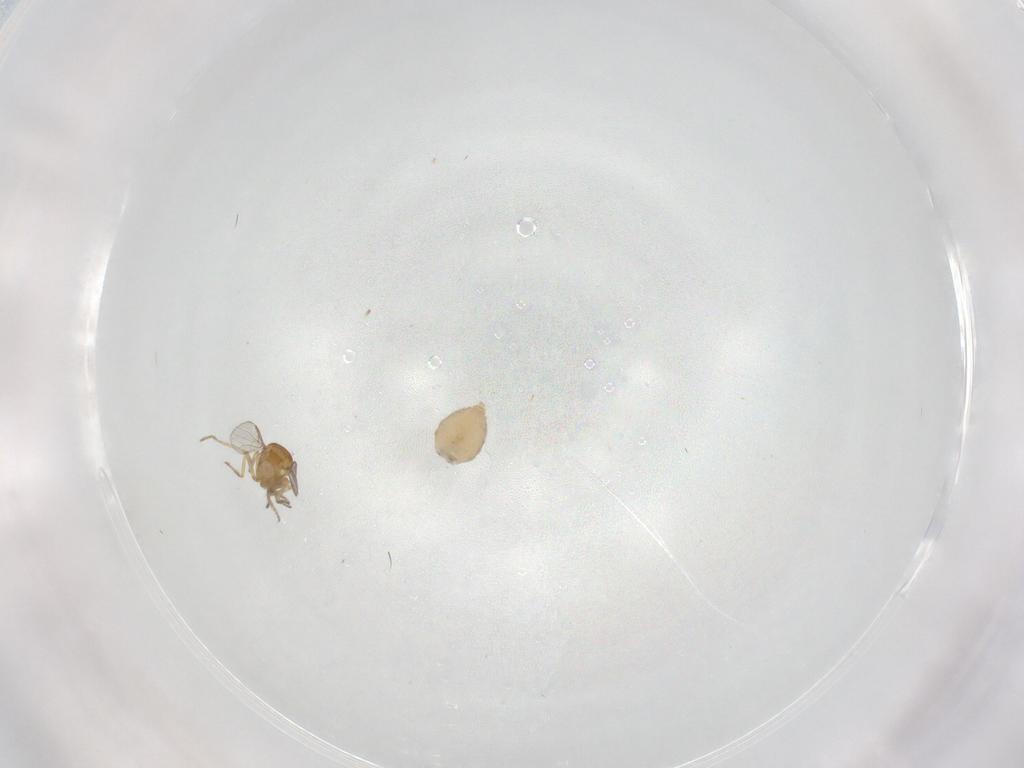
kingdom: Animalia
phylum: Arthropoda
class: Insecta
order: Diptera
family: Ceratopogonidae
